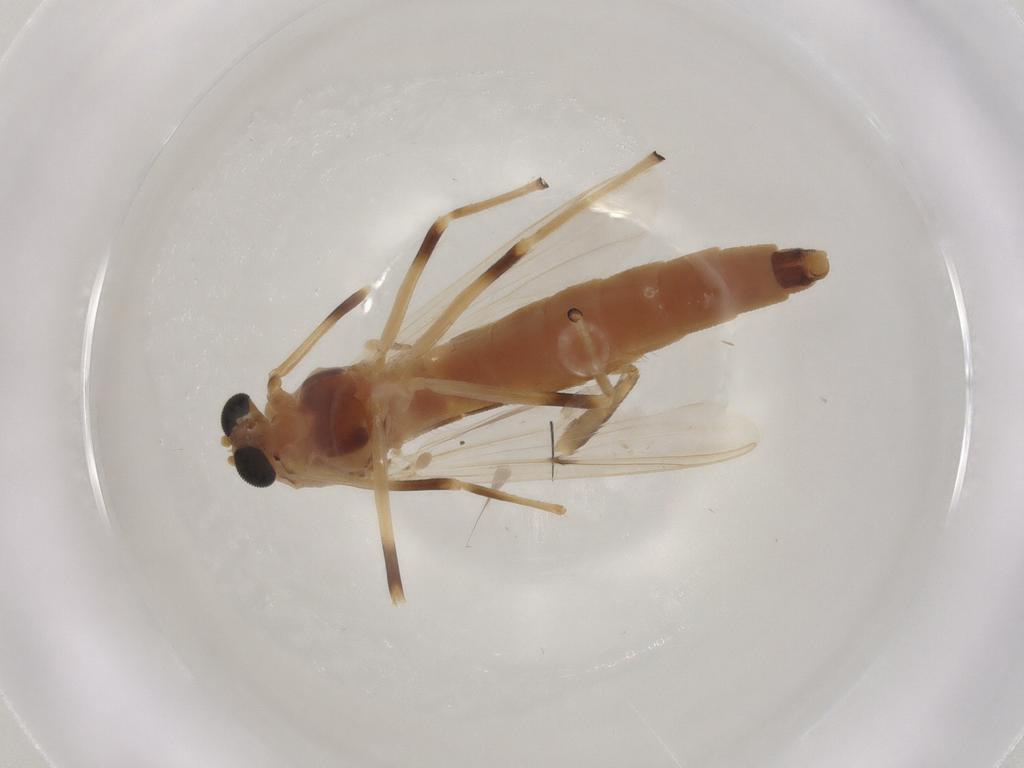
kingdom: Animalia
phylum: Arthropoda
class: Insecta
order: Diptera
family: Chironomidae
